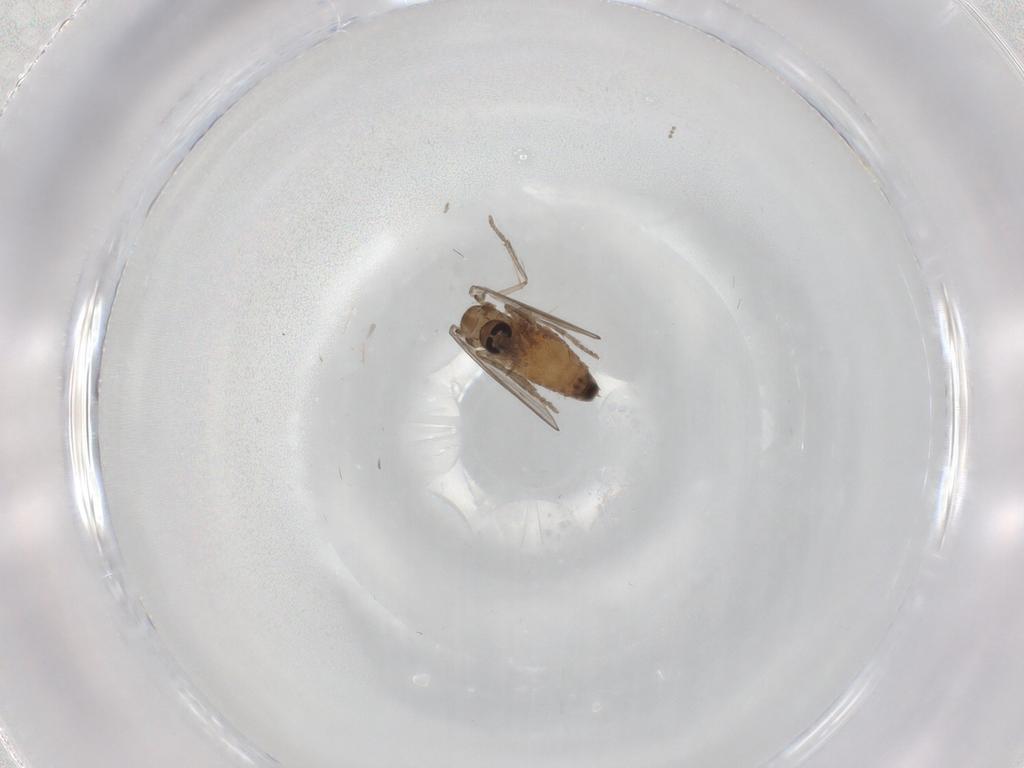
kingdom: Animalia
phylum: Arthropoda
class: Insecta
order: Diptera
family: Psychodidae
